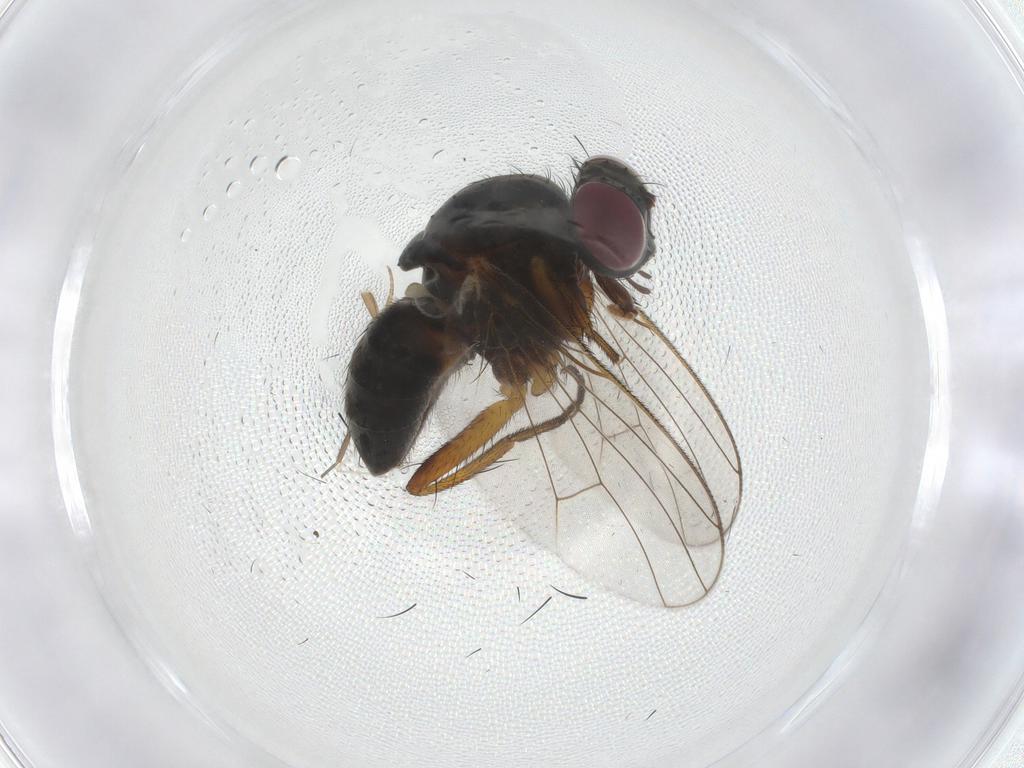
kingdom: Animalia
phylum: Arthropoda
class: Insecta
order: Diptera
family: Muscidae
